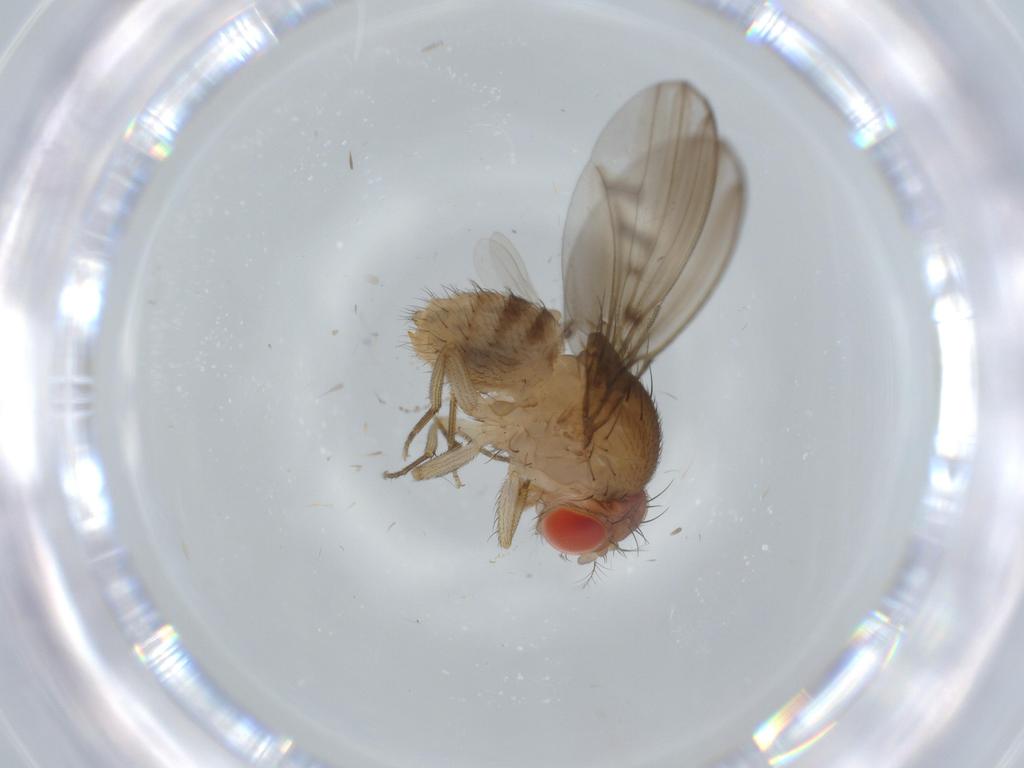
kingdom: Animalia
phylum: Arthropoda
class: Insecta
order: Diptera
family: Drosophilidae
